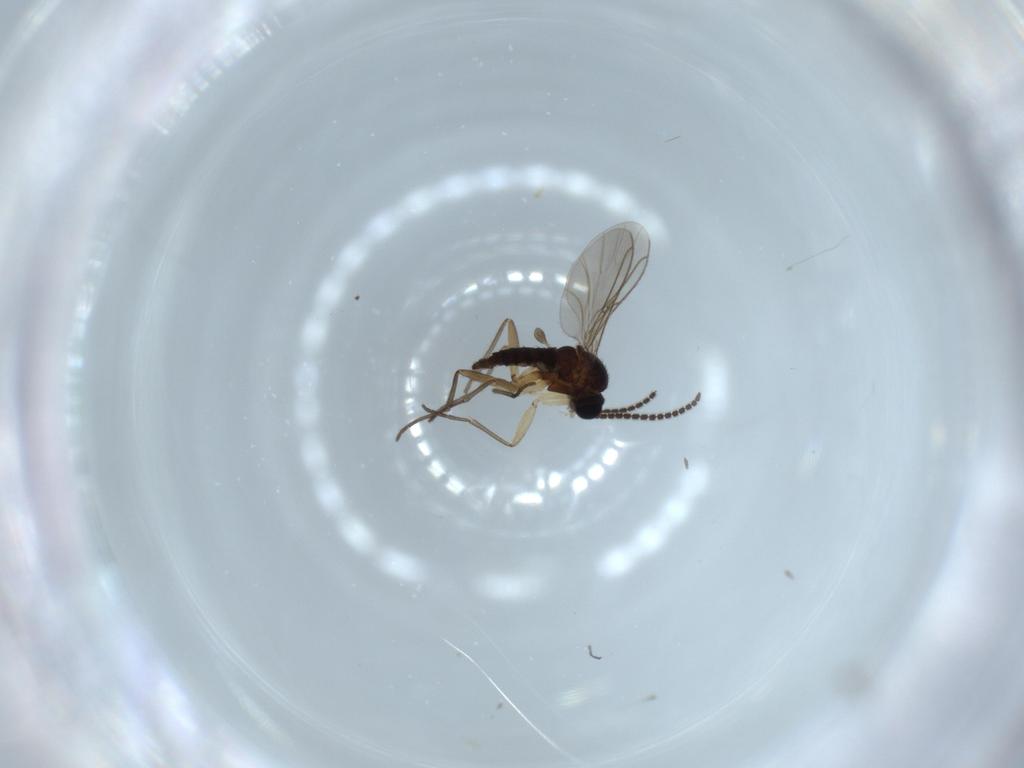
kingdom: Animalia
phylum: Arthropoda
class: Insecta
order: Diptera
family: Sciaridae
